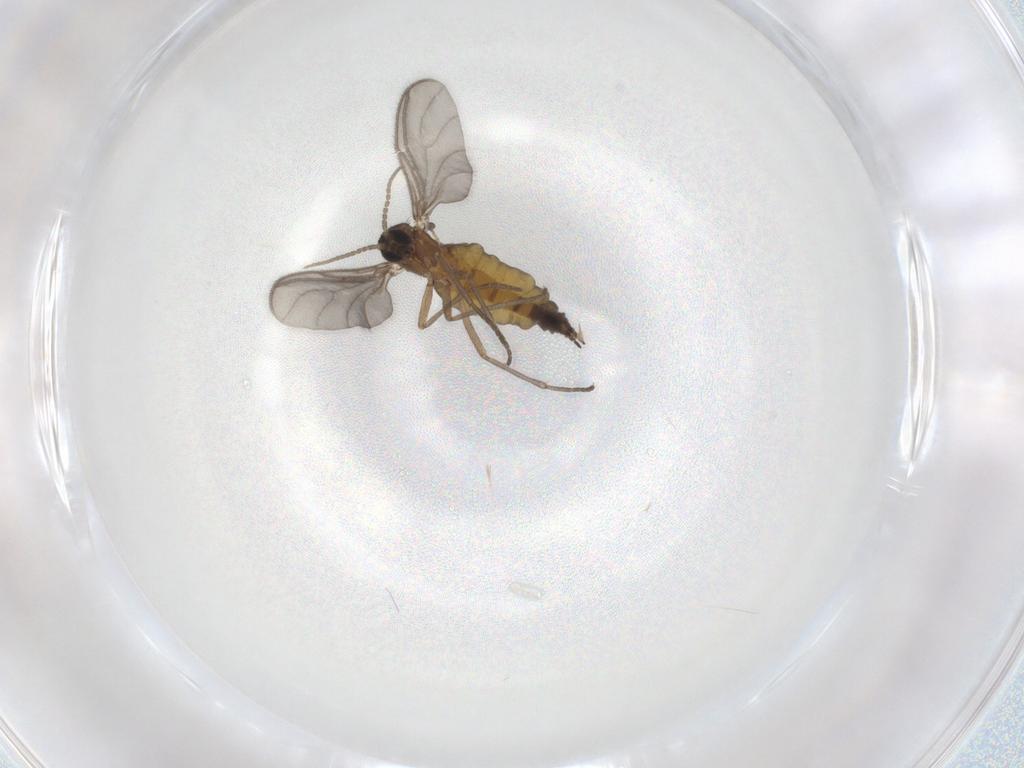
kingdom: Animalia
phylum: Arthropoda
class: Insecta
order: Diptera
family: Sciaridae
